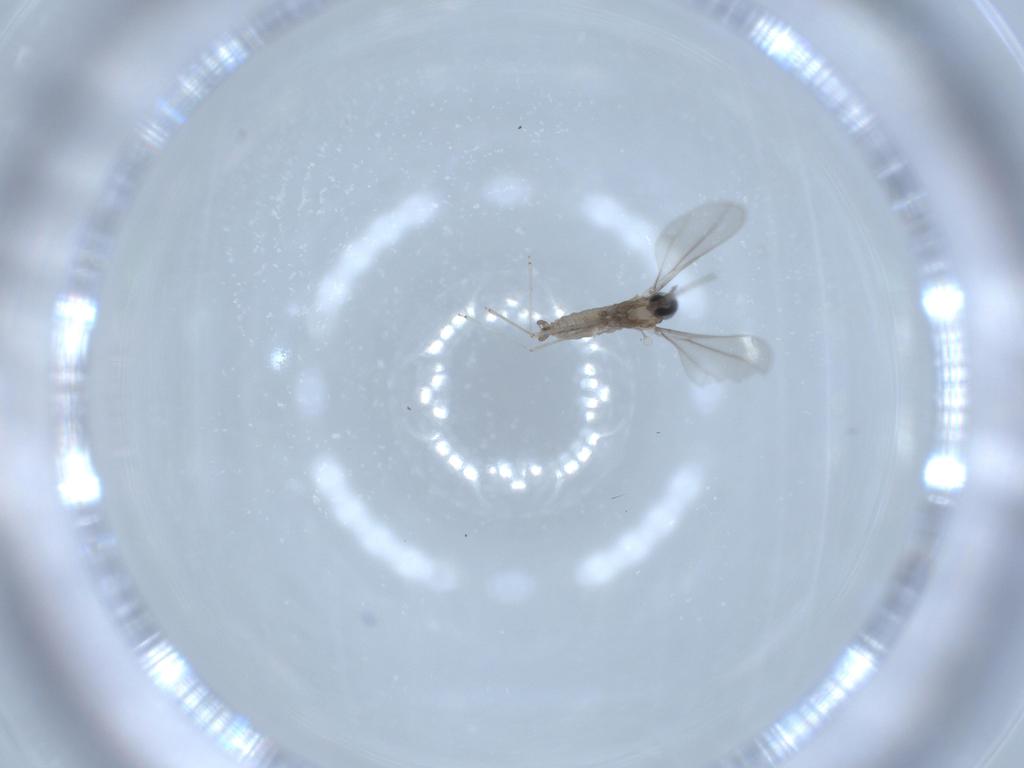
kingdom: Animalia
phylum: Arthropoda
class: Insecta
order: Diptera
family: Cecidomyiidae
